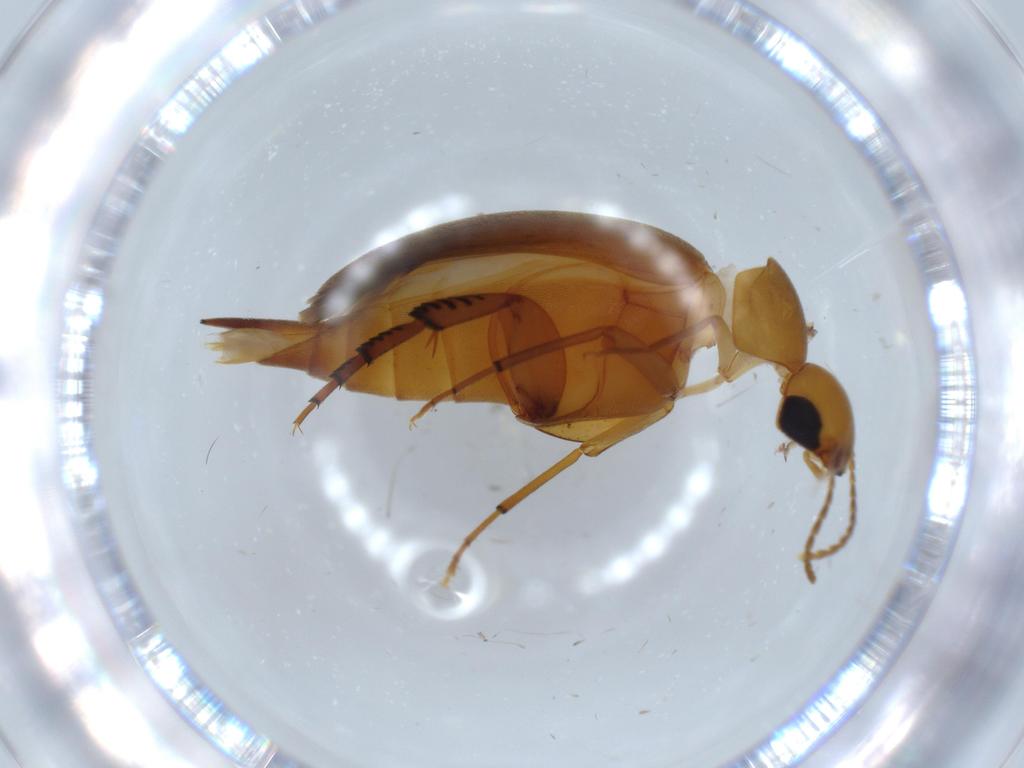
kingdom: Animalia
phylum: Arthropoda
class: Insecta
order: Coleoptera
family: Mordellidae
